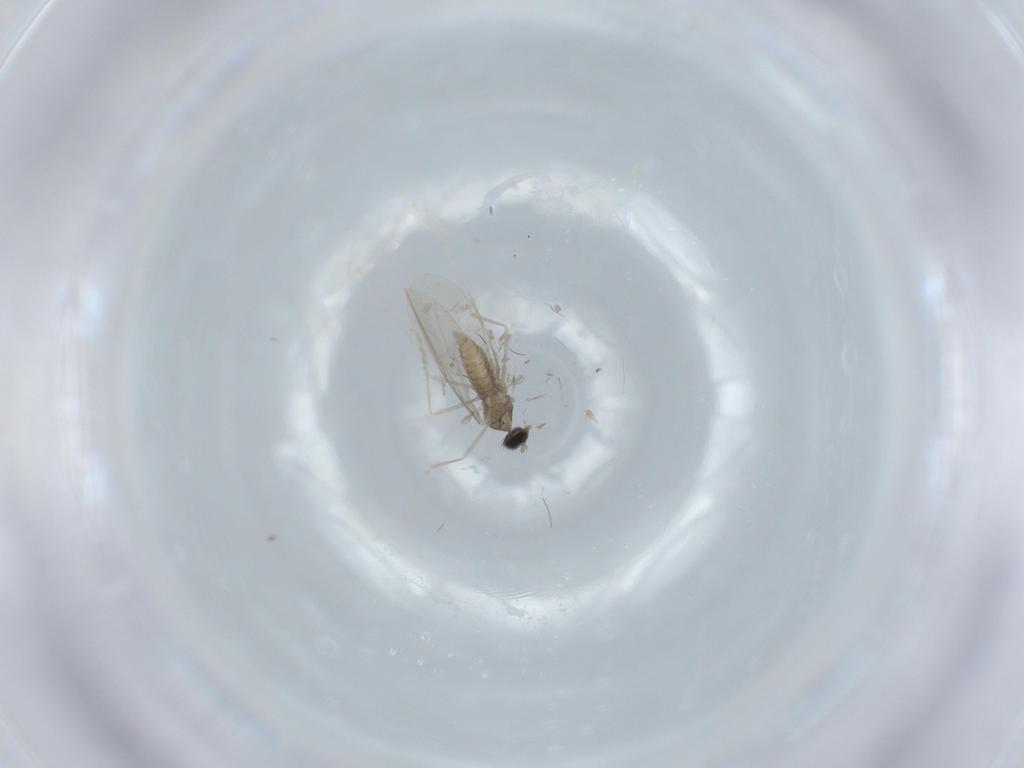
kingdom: Animalia
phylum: Arthropoda
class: Insecta
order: Diptera
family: Cecidomyiidae
